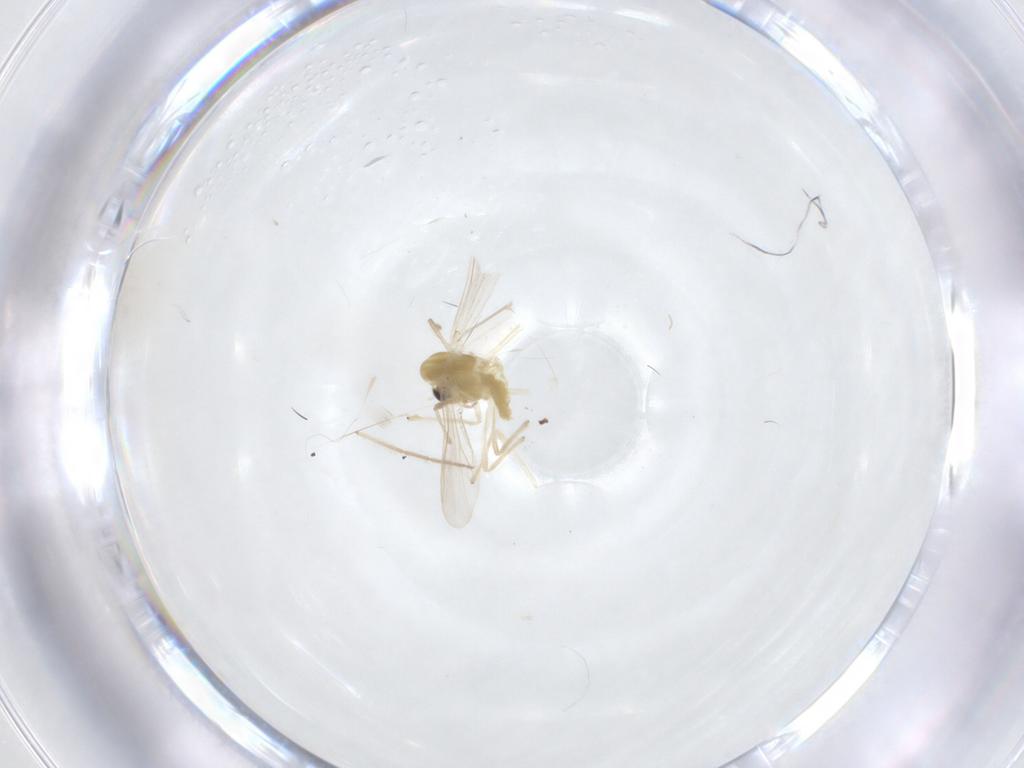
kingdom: Animalia
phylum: Arthropoda
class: Insecta
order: Diptera
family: Chironomidae
